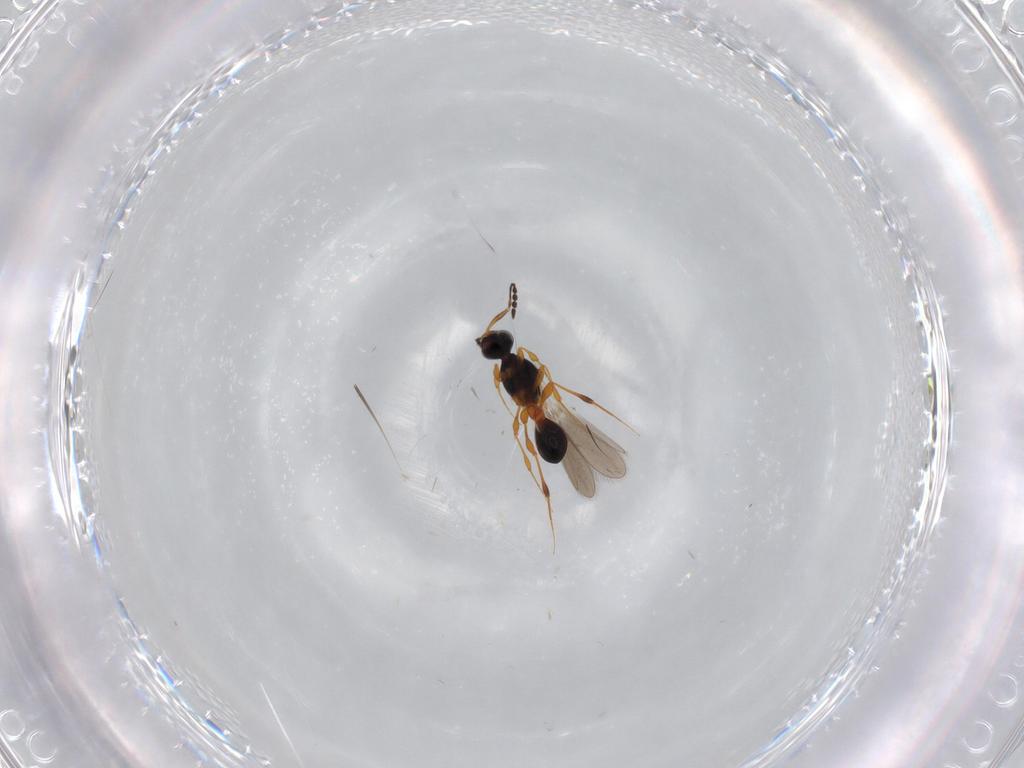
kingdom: Animalia
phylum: Arthropoda
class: Insecta
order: Hymenoptera
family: Platygastridae
